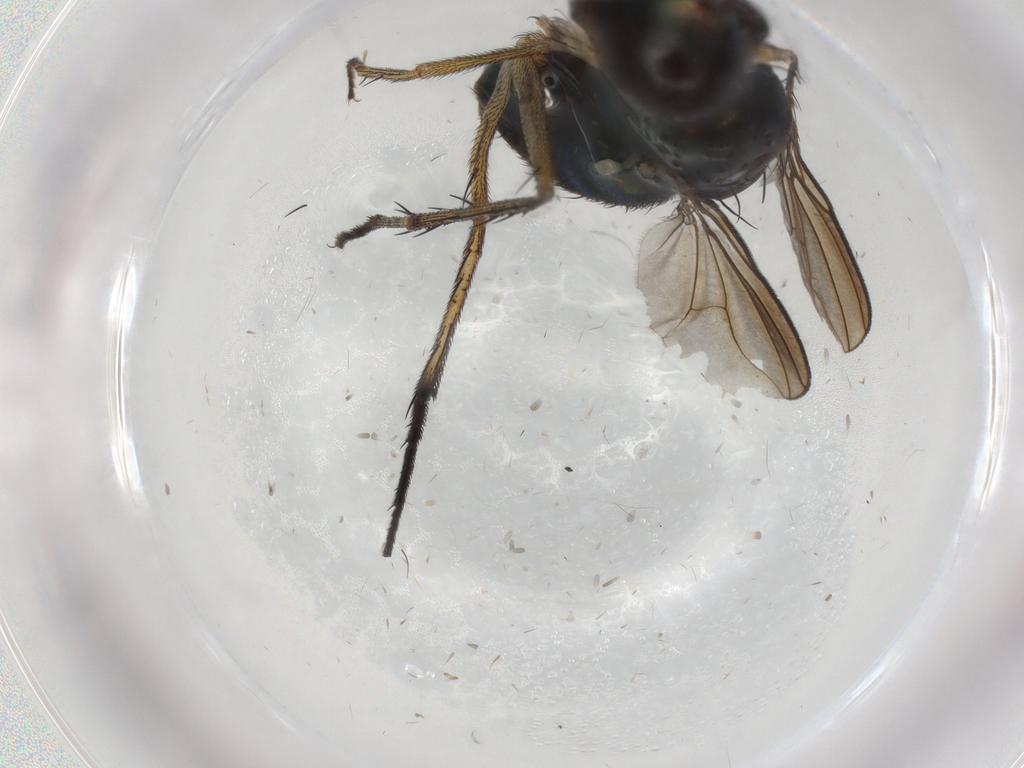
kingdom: Animalia
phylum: Arthropoda
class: Insecta
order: Diptera
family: Dolichopodidae
